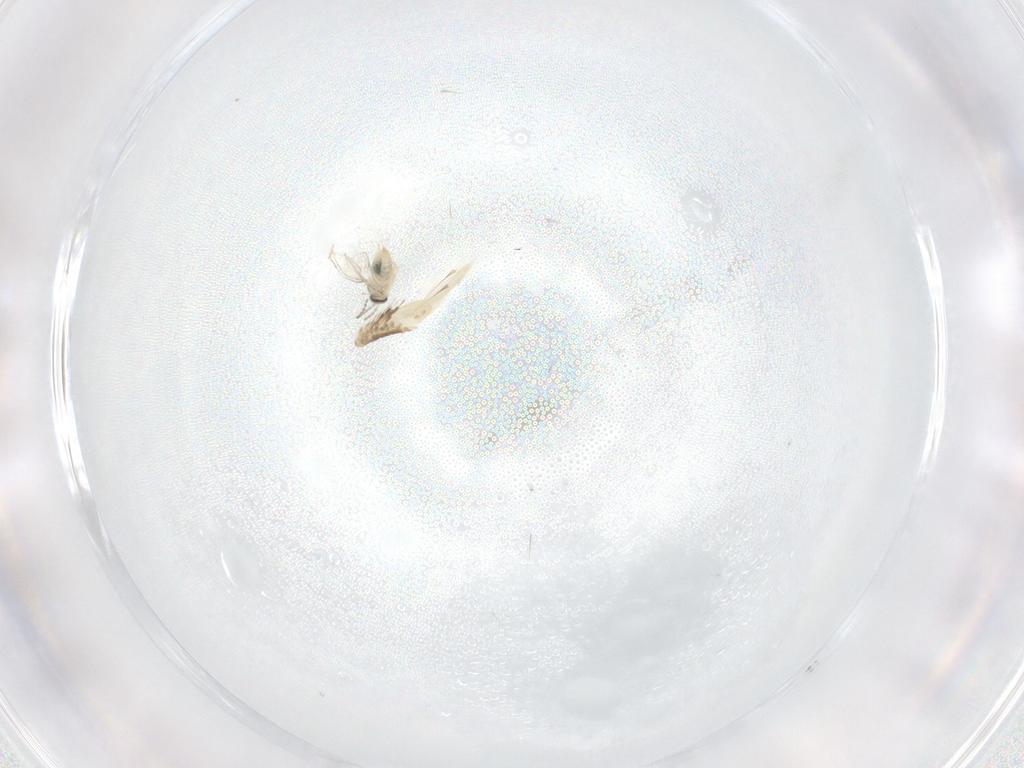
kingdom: Animalia
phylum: Arthropoda
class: Insecta
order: Diptera
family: Cecidomyiidae
